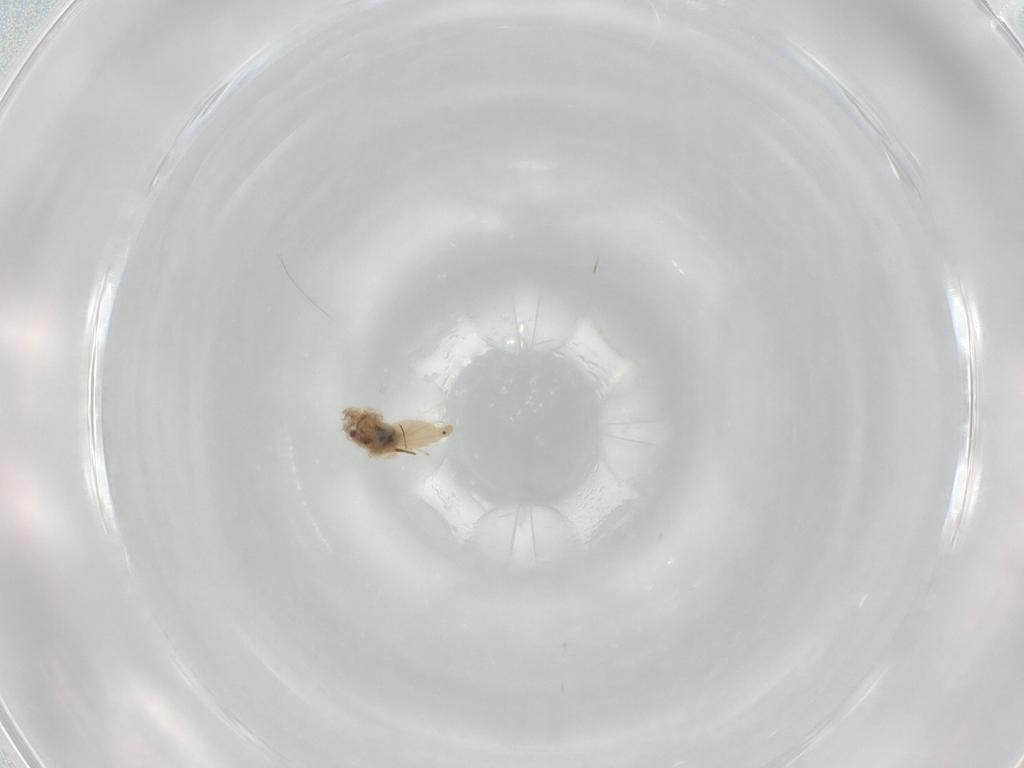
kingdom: Animalia
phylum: Arthropoda
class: Insecta
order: Diptera
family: Cecidomyiidae
